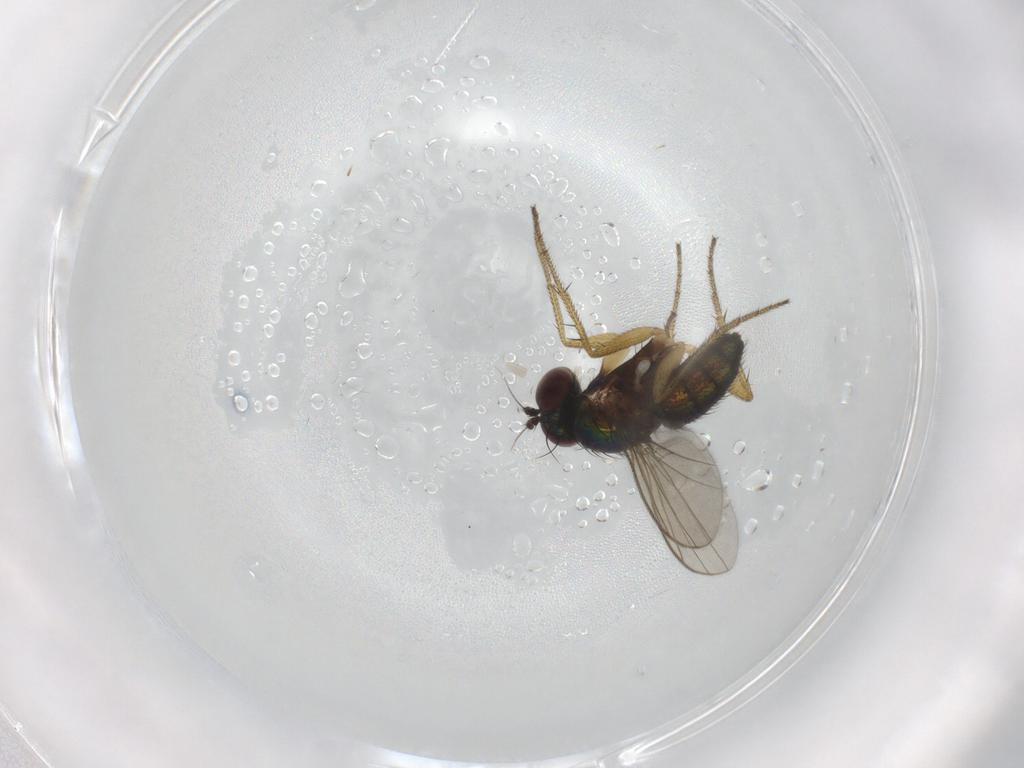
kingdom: Animalia
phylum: Arthropoda
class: Insecta
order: Diptera
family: Dolichopodidae
